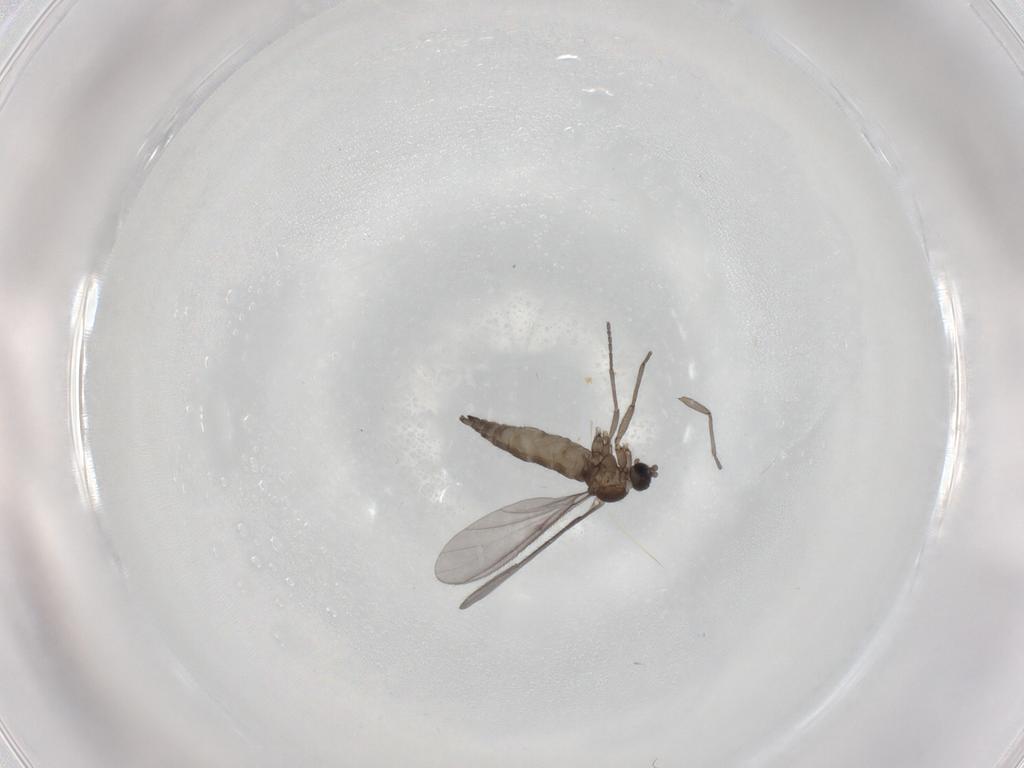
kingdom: Animalia
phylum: Arthropoda
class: Insecta
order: Diptera
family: Sciaridae
